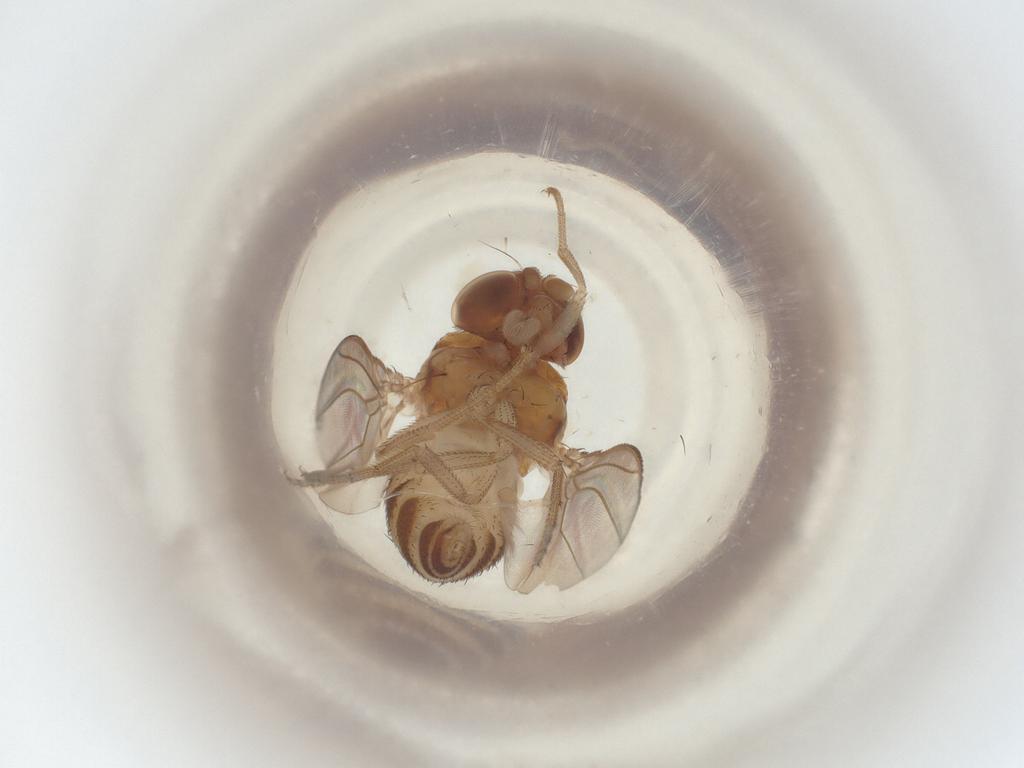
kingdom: Animalia
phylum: Arthropoda
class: Insecta
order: Diptera
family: Drosophilidae
